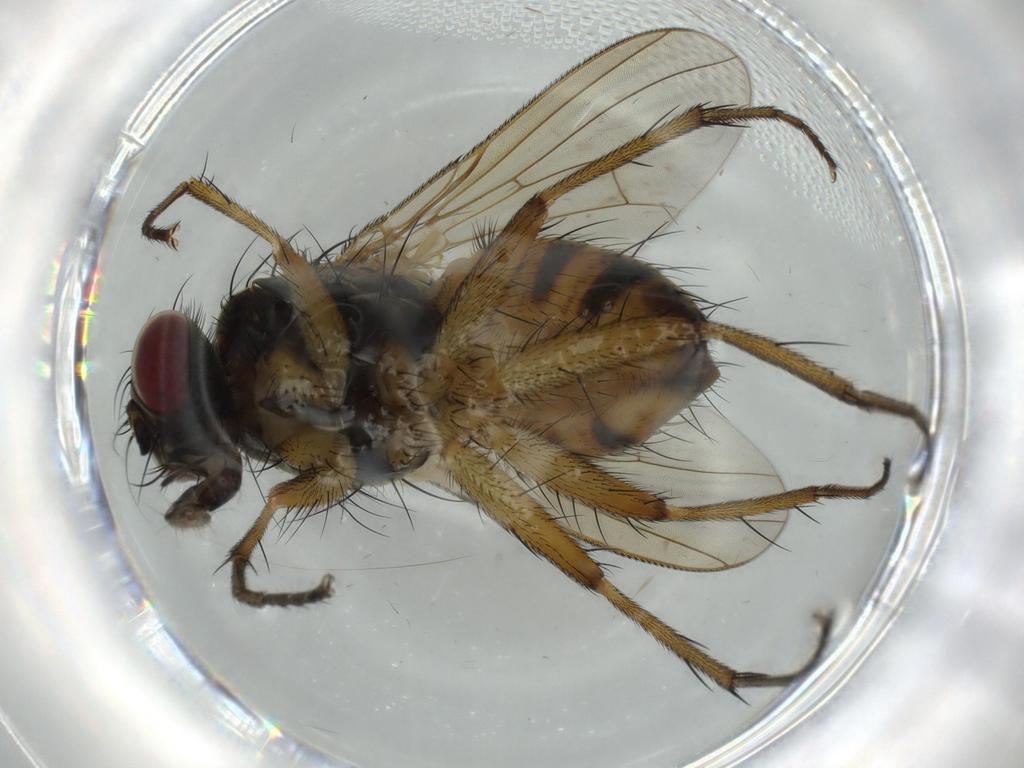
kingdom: Animalia
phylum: Arthropoda
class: Insecta
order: Diptera
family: Muscidae
